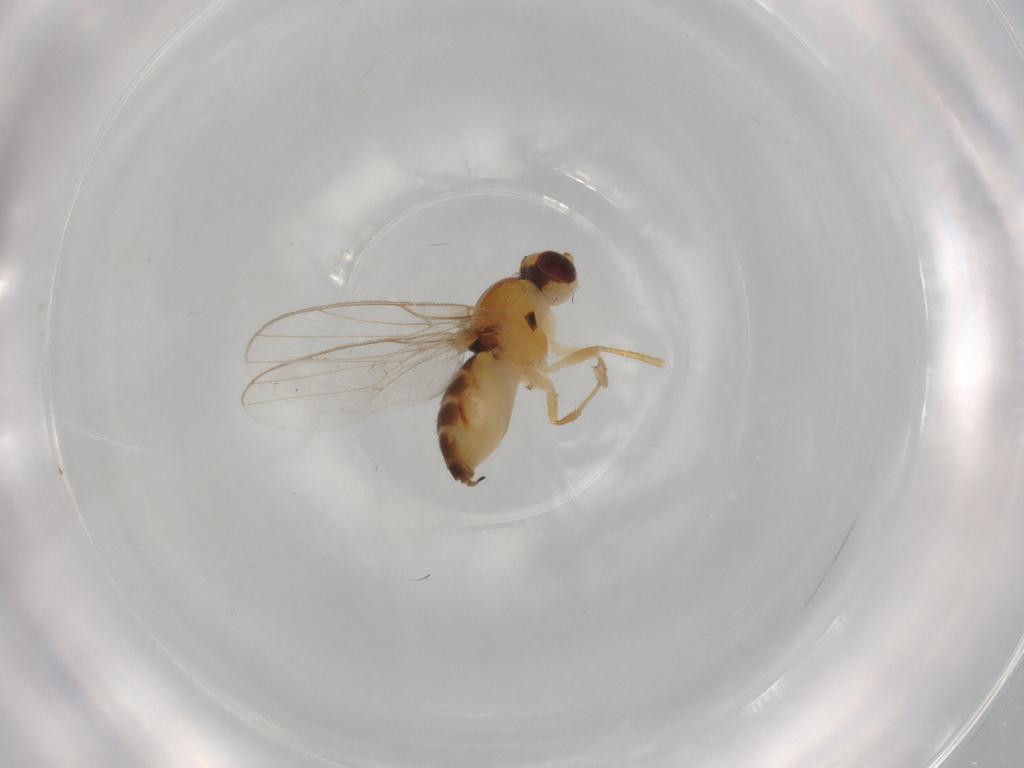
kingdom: Animalia
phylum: Arthropoda
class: Insecta
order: Diptera
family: Chloropidae
